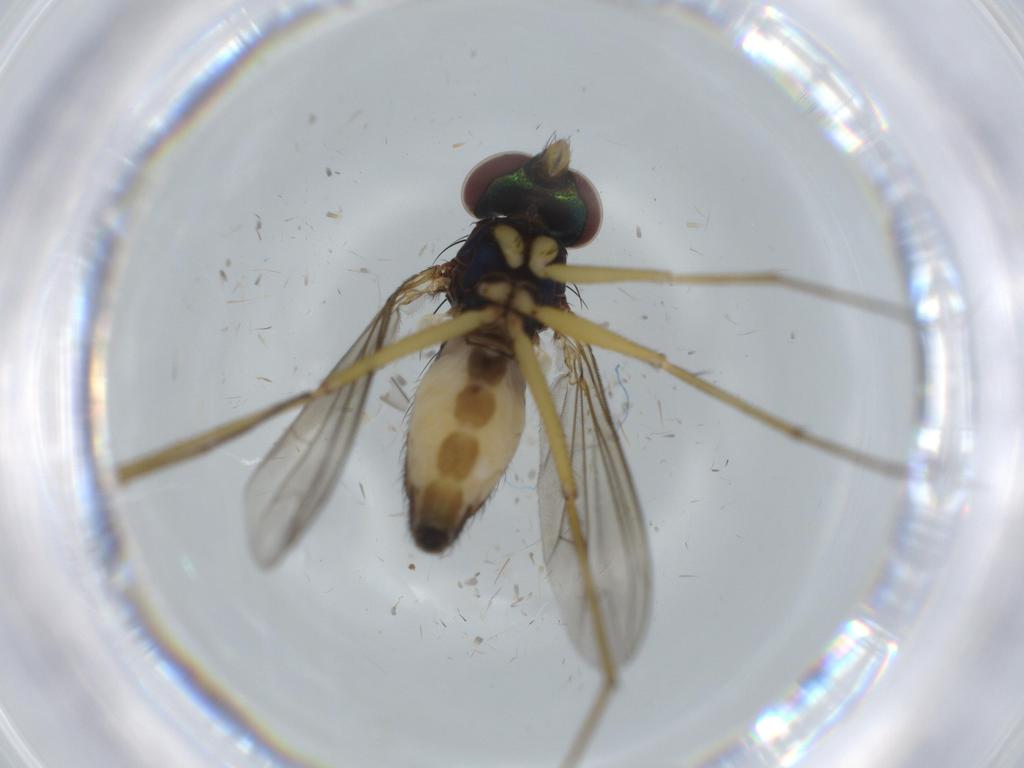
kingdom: Animalia
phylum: Arthropoda
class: Insecta
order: Diptera
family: Dolichopodidae
